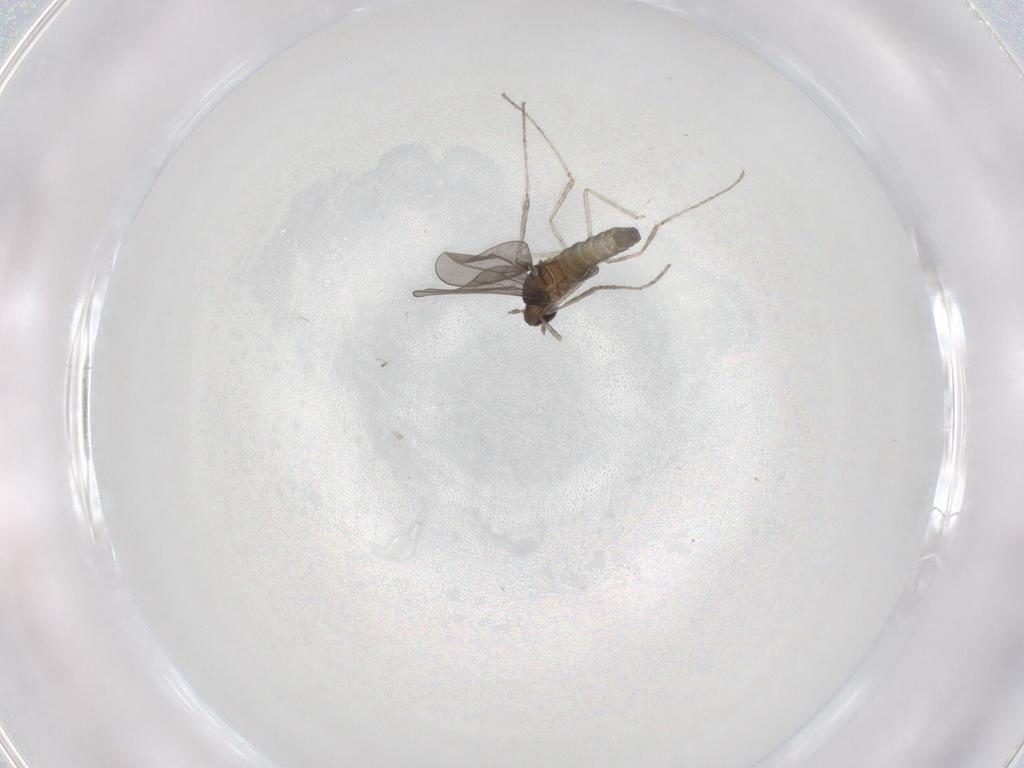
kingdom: Animalia
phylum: Arthropoda
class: Insecta
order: Diptera
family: Cecidomyiidae
